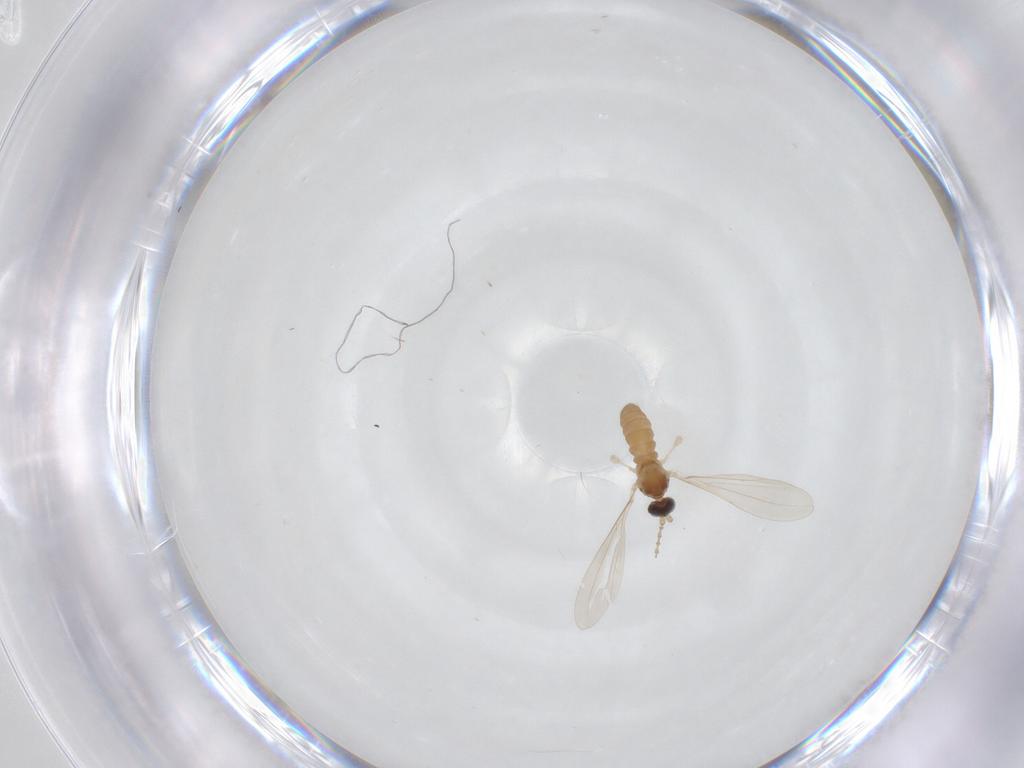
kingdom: Animalia
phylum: Arthropoda
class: Insecta
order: Diptera
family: Cecidomyiidae
